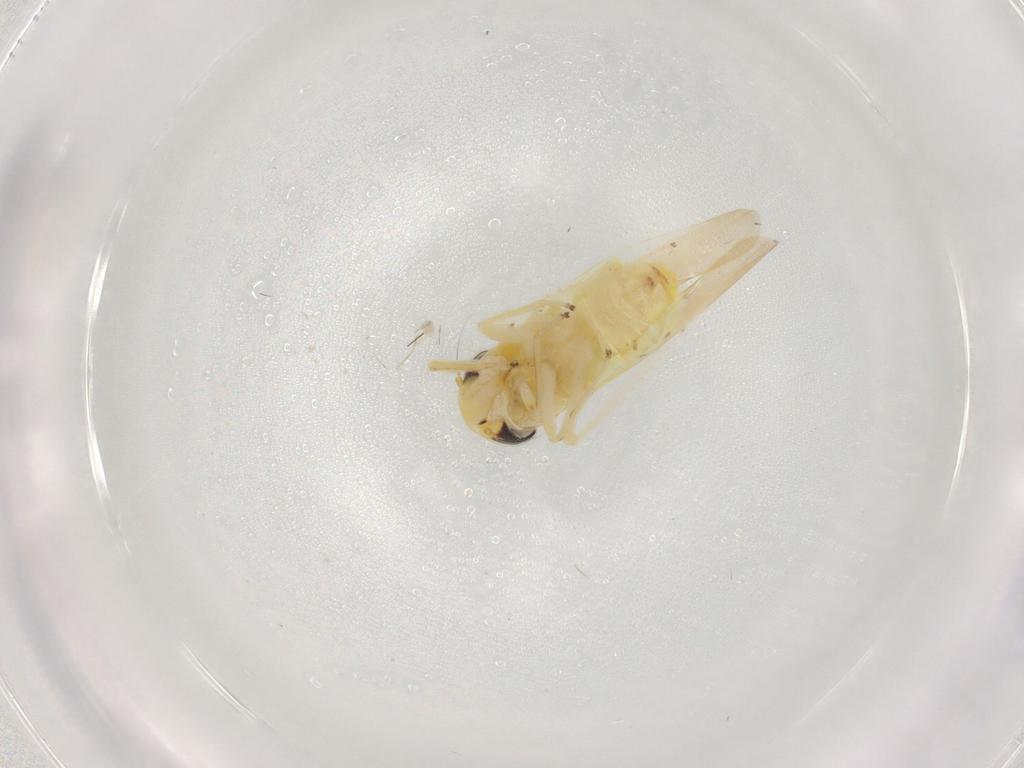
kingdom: Animalia
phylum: Arthropoda
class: Insecta
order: Hemiptera
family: Cicadellidae
